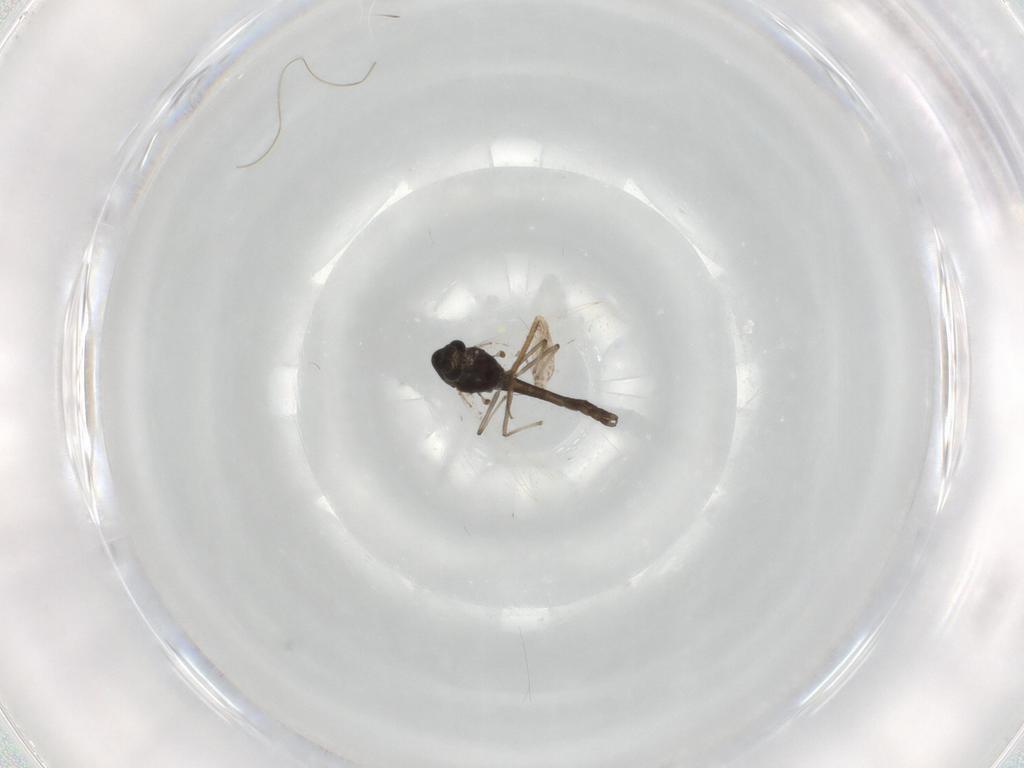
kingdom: Animalia
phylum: Arthropoda
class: Insecta
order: Diptera
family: Chironomidae
